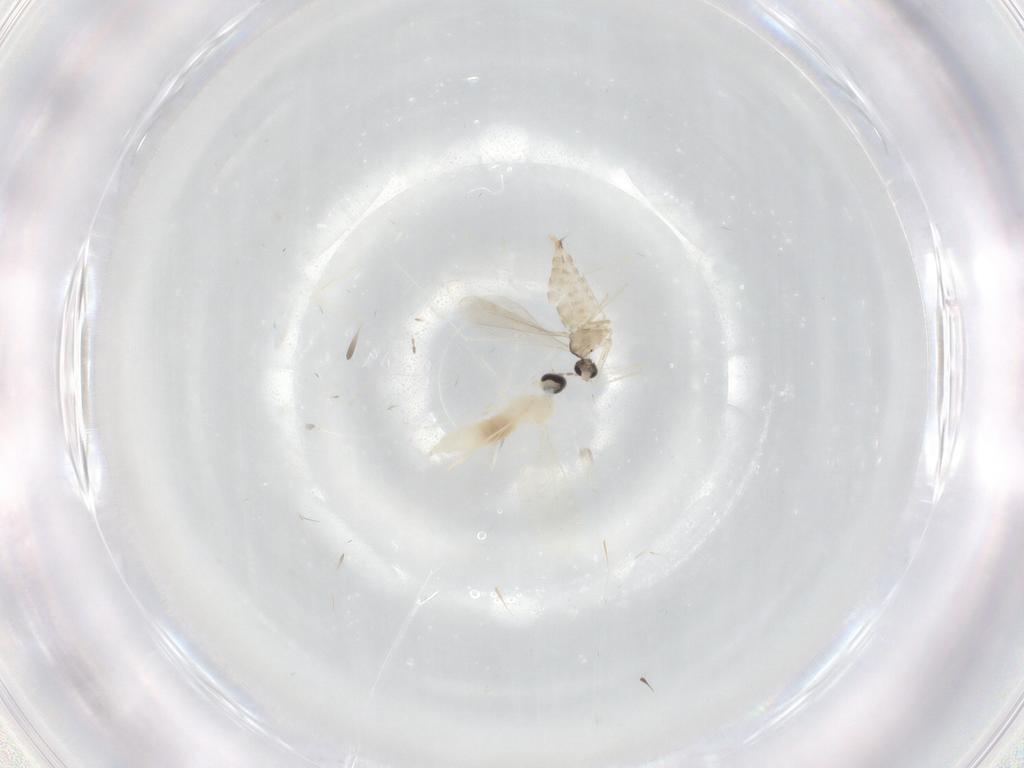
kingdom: Animalia
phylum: Arthropoda
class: Insecta
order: Diptera
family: Cecidomyiidae
